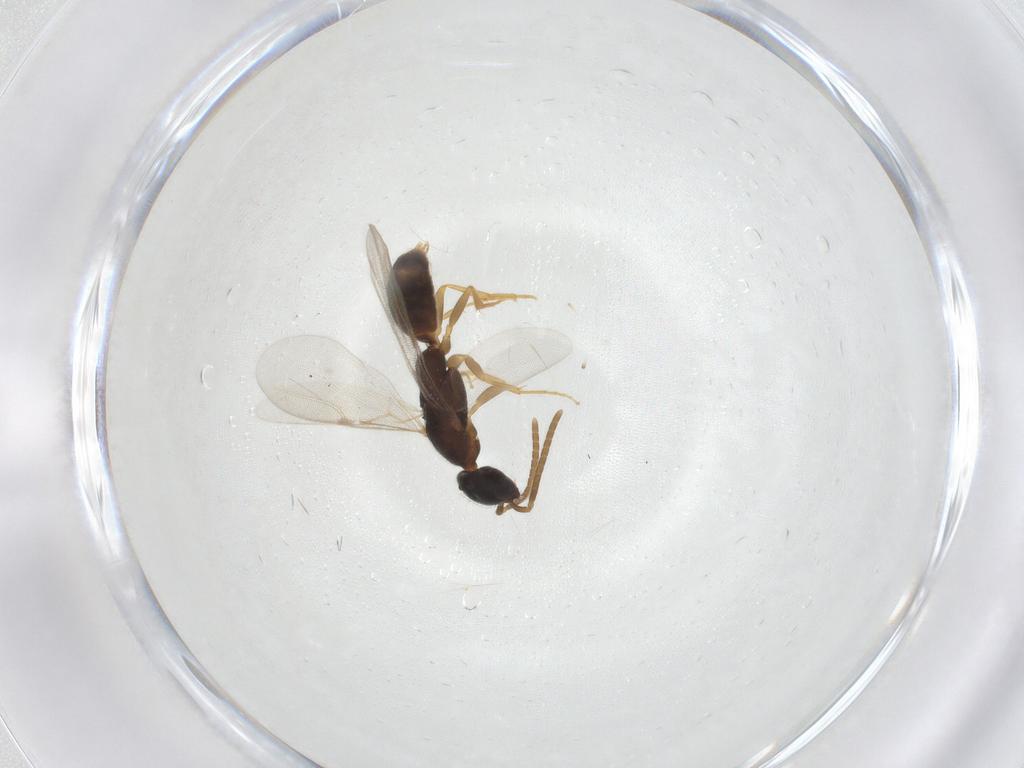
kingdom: Animalia
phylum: Arthropoda
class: Insecta
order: Hymenoptera
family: Bethylidae
